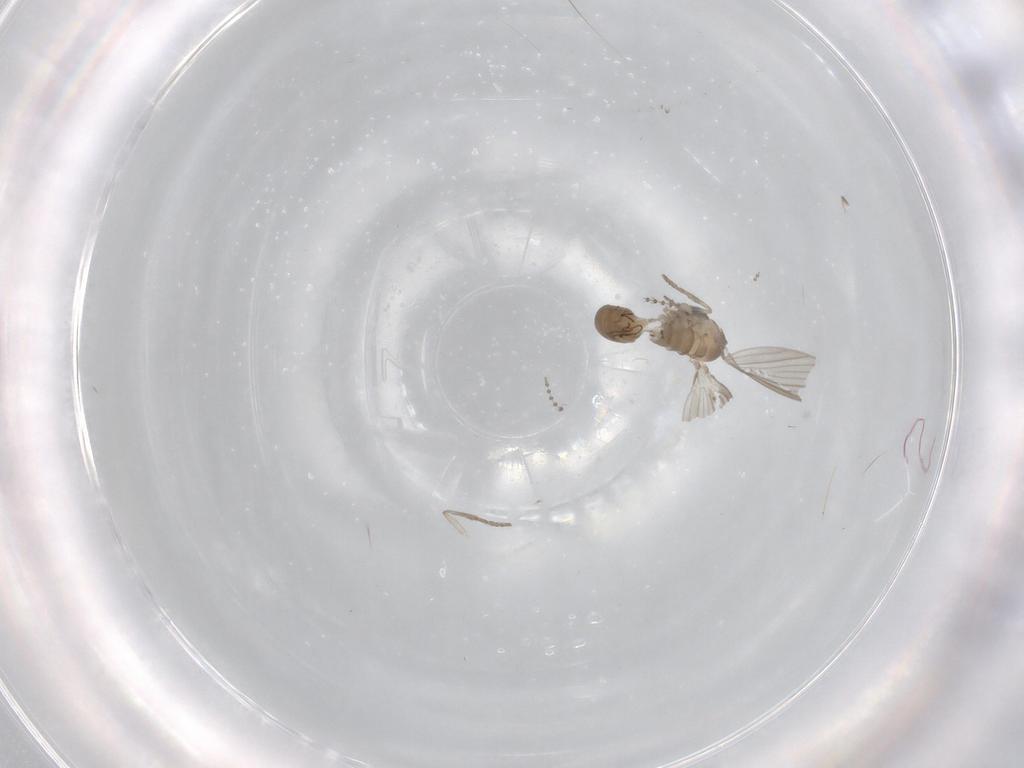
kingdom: Animalia
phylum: Arthropoda
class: Insecta
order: Diptera
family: Psychodidae
